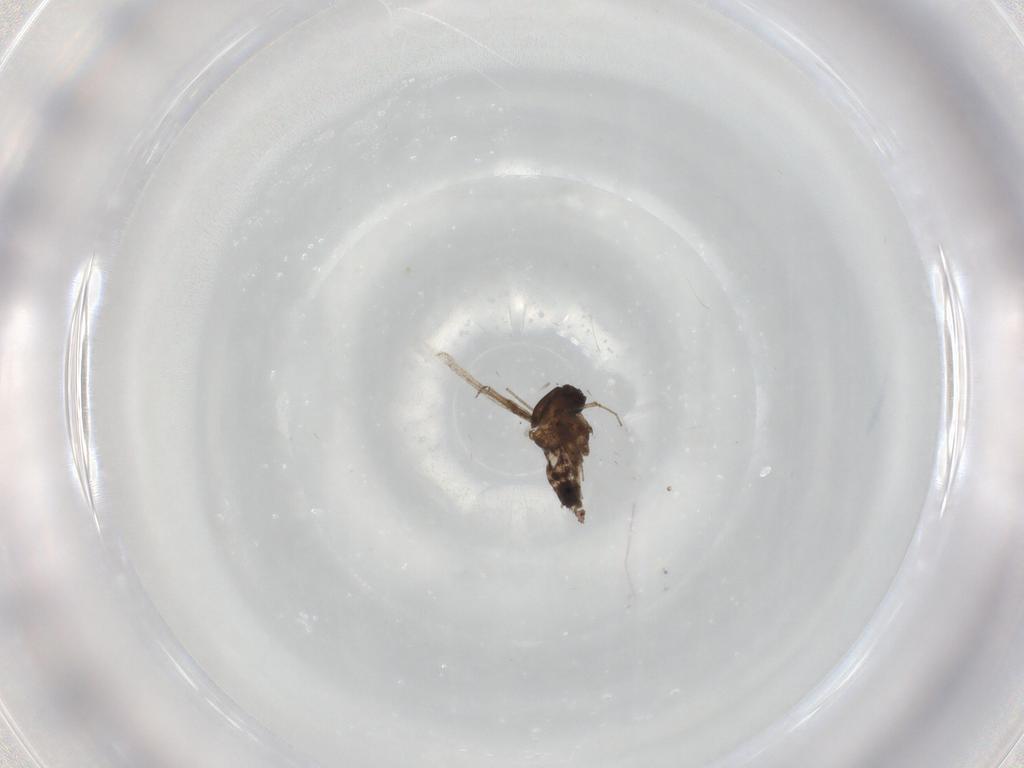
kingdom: Animalia
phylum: Arthropoda
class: Insecta
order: Diptera
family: Ceratopogonidae
